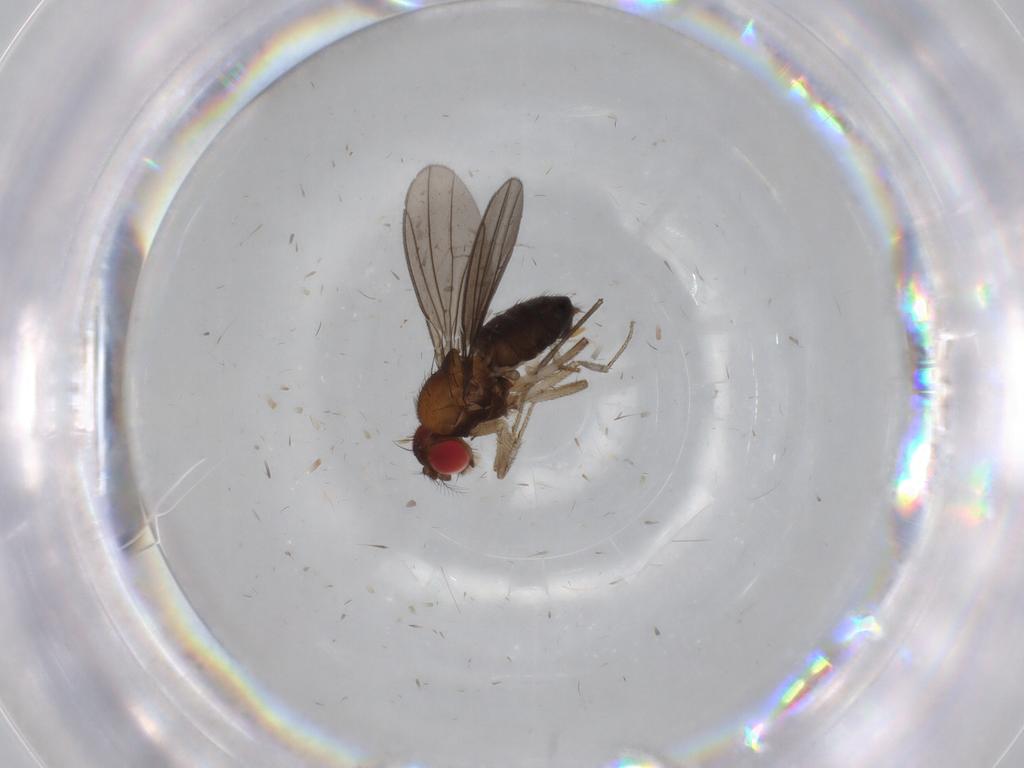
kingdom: Animalia
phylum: Arthropoda
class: Insecta
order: Diptera
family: Drosophilidae
